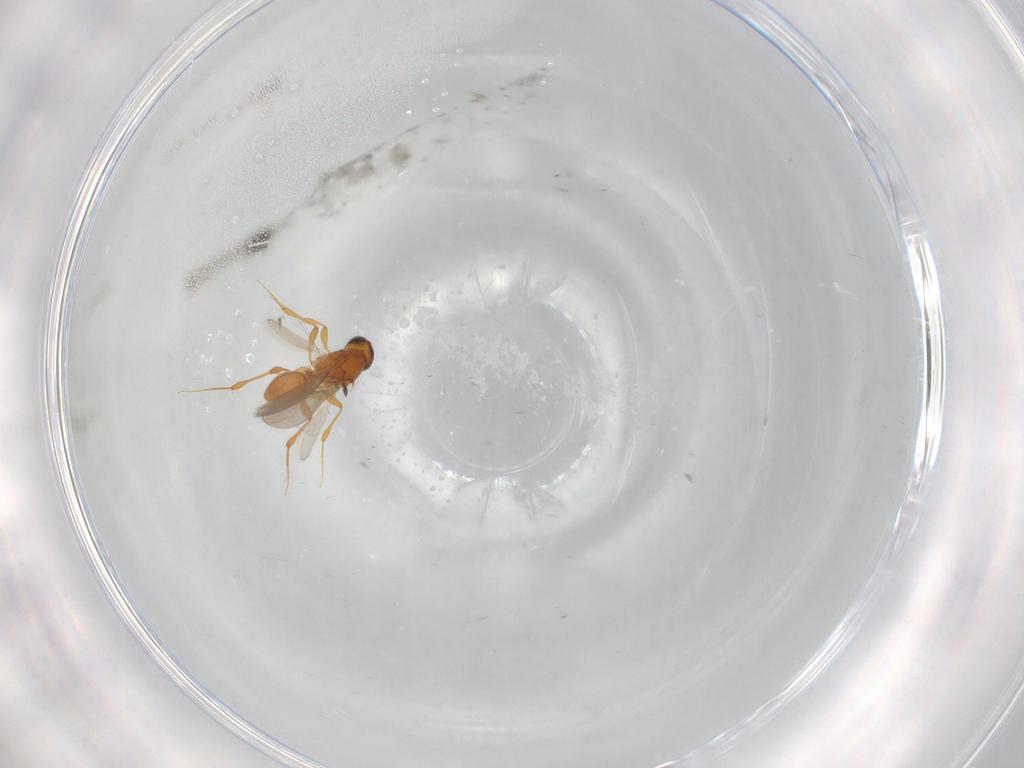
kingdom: Animalia
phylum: Arthropoda
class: Insecta
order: Hymenoptera
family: Platygastridae
